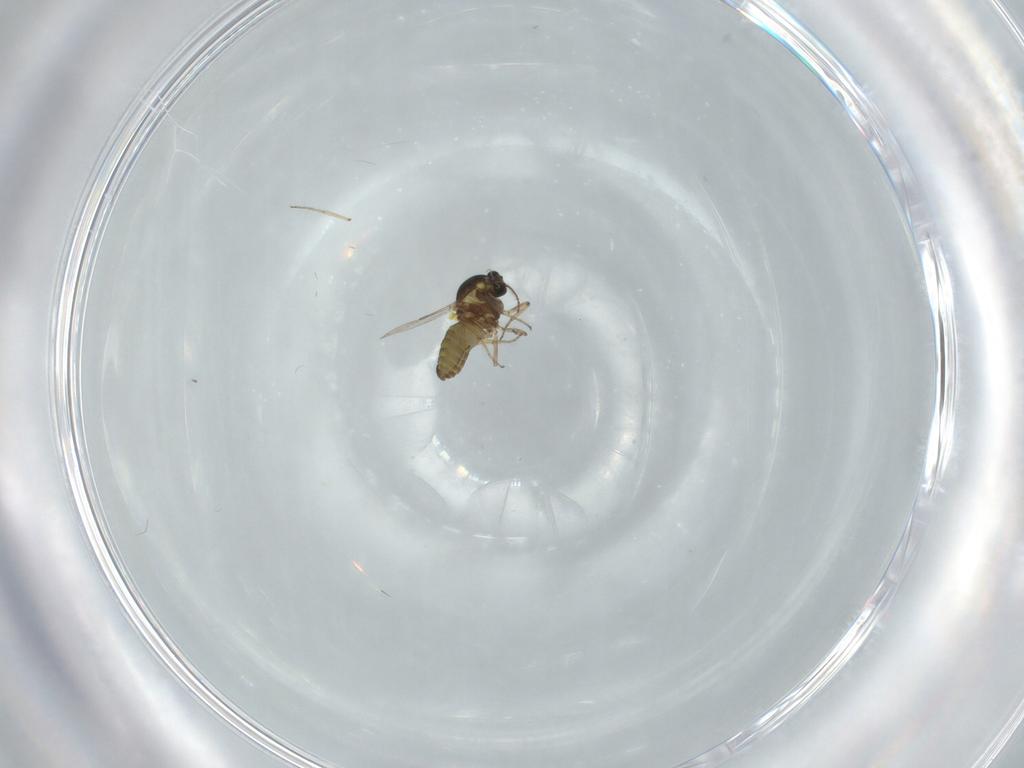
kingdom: Animalia
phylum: Arthropoda
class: Insecta
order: Diptera
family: Ceratopogonidae
